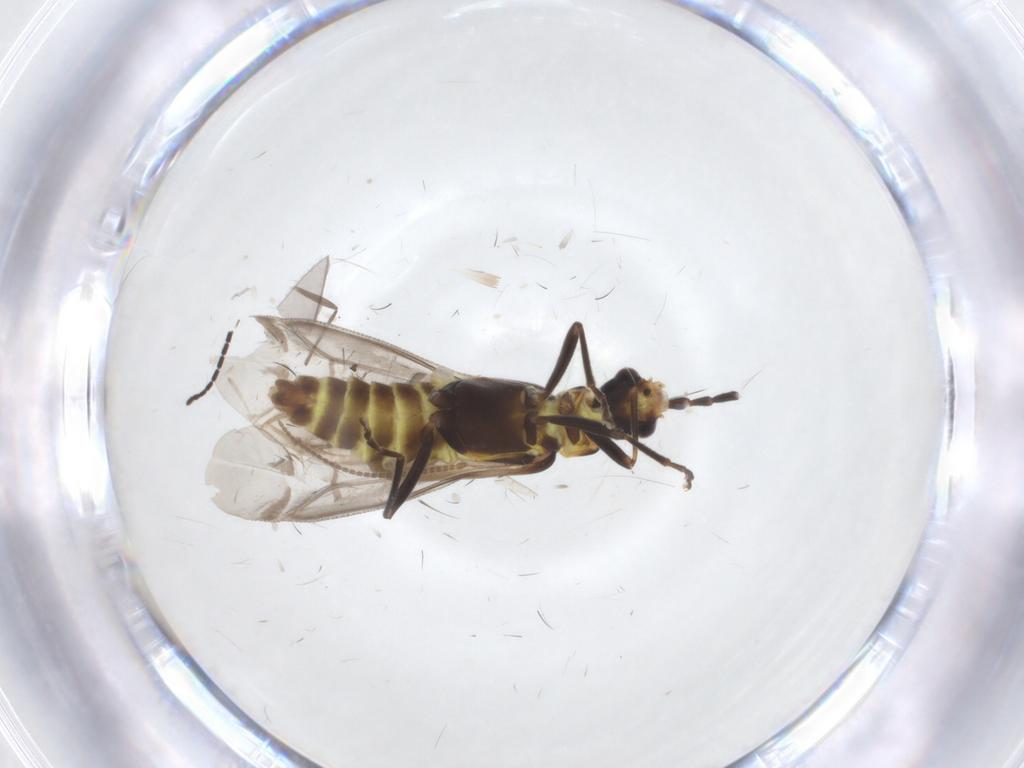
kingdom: Animalia
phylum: Arthropoda
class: Insecta
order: Coleoptera
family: Cantharidae
